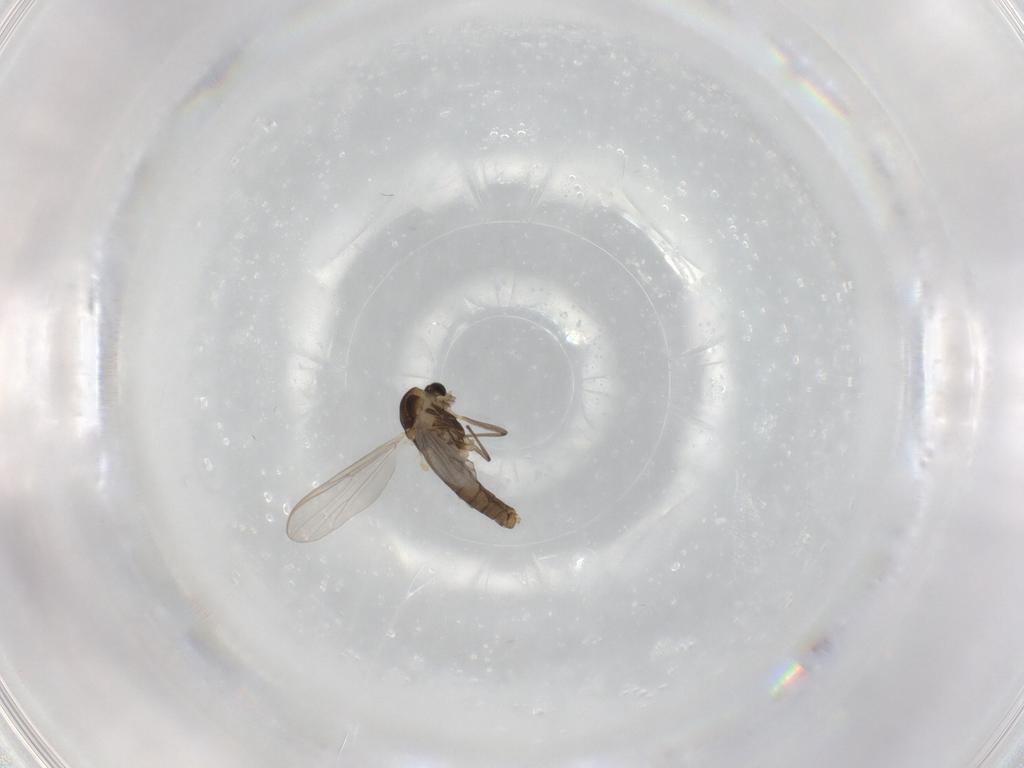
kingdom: Animalia
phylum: Arthropoda
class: Insecta
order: Diptera
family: Chironomidae
